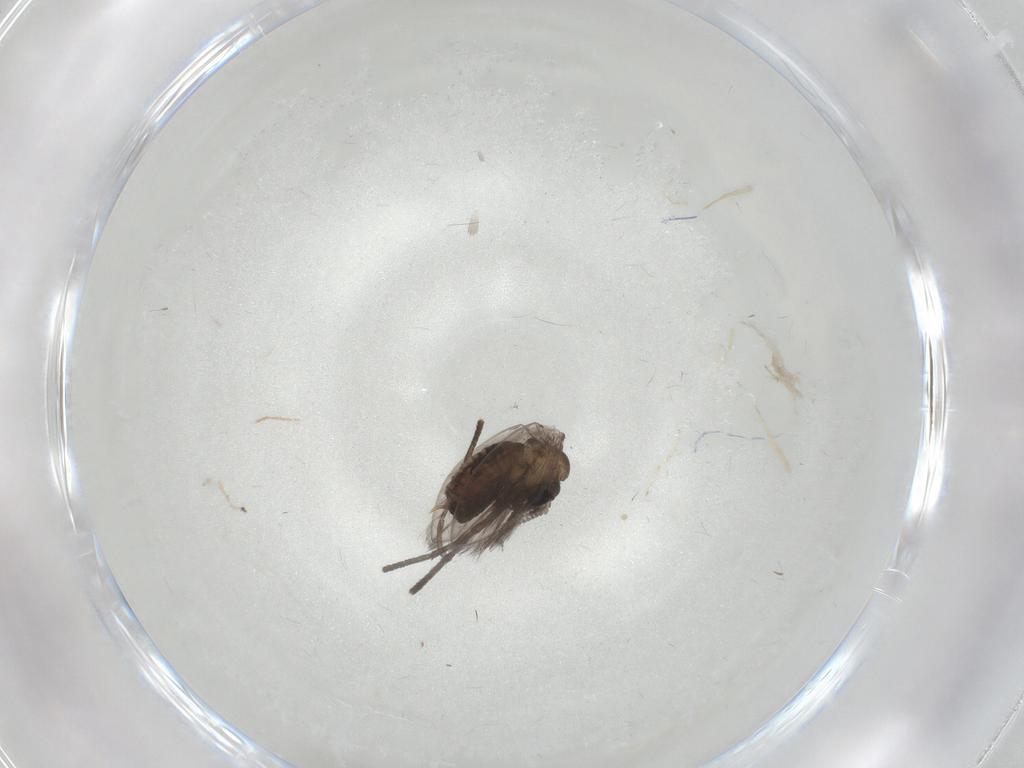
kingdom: Animalia
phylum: Arthropoda
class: Insecta
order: Diptera
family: Psychodidae
